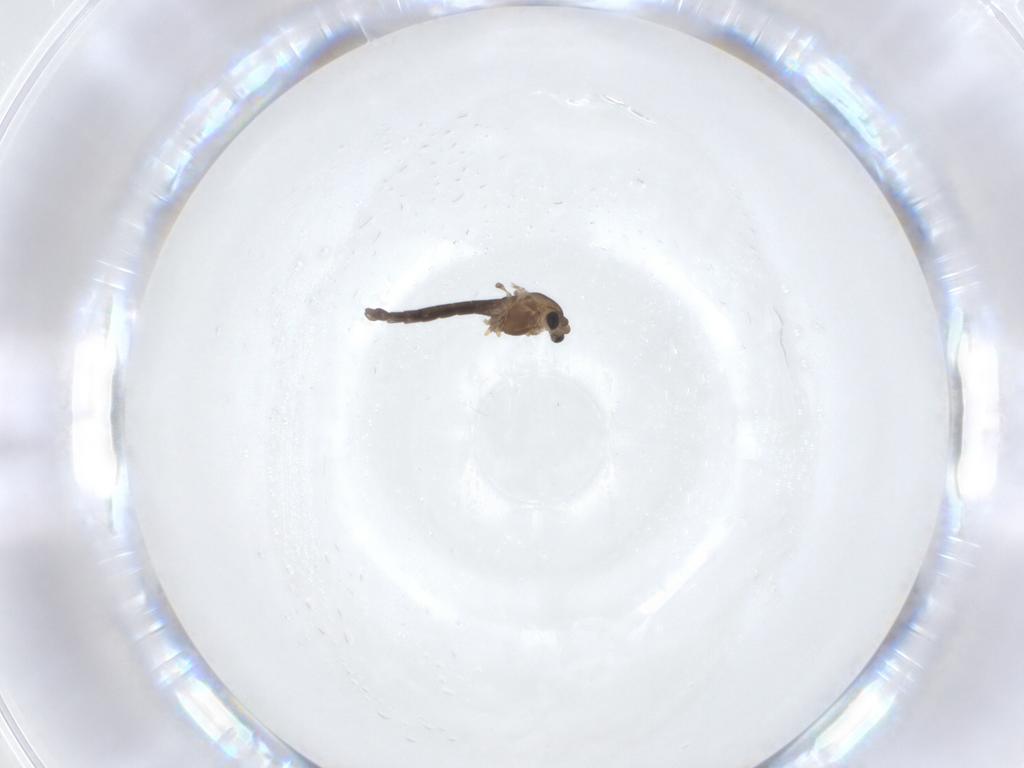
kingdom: Animalia
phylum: Arthropoda
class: Insecta
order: Diptera
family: Chironomidae
